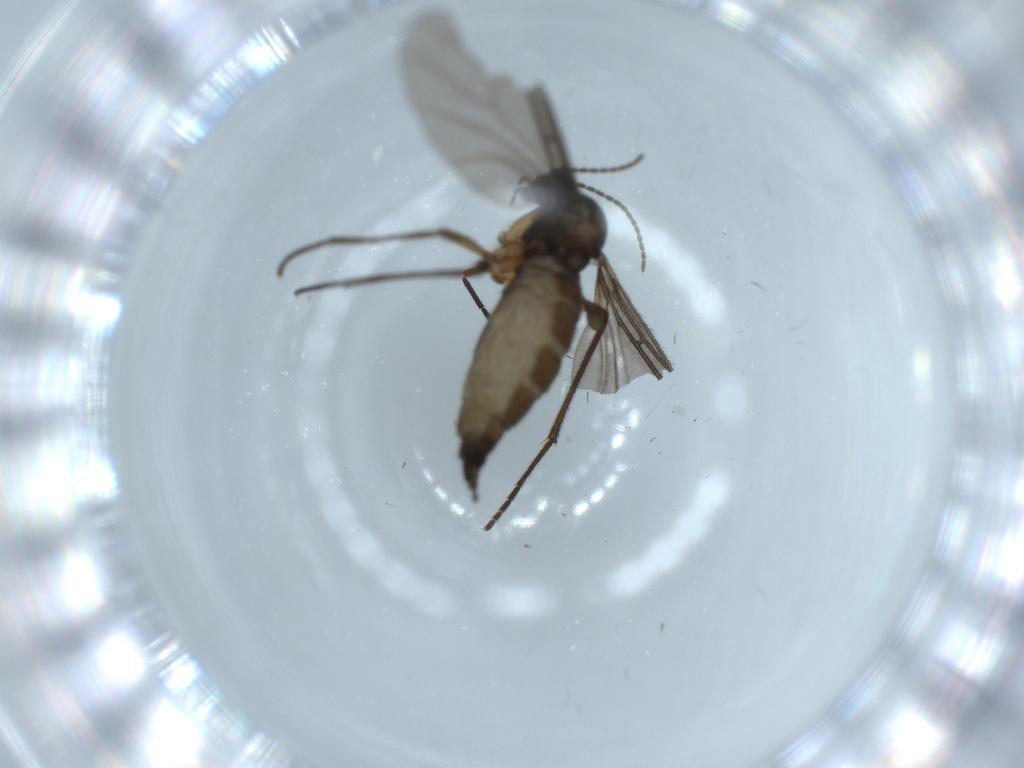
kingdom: Animalia
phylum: Arthropoda
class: Insecta
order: Diptera
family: Sciaridae
